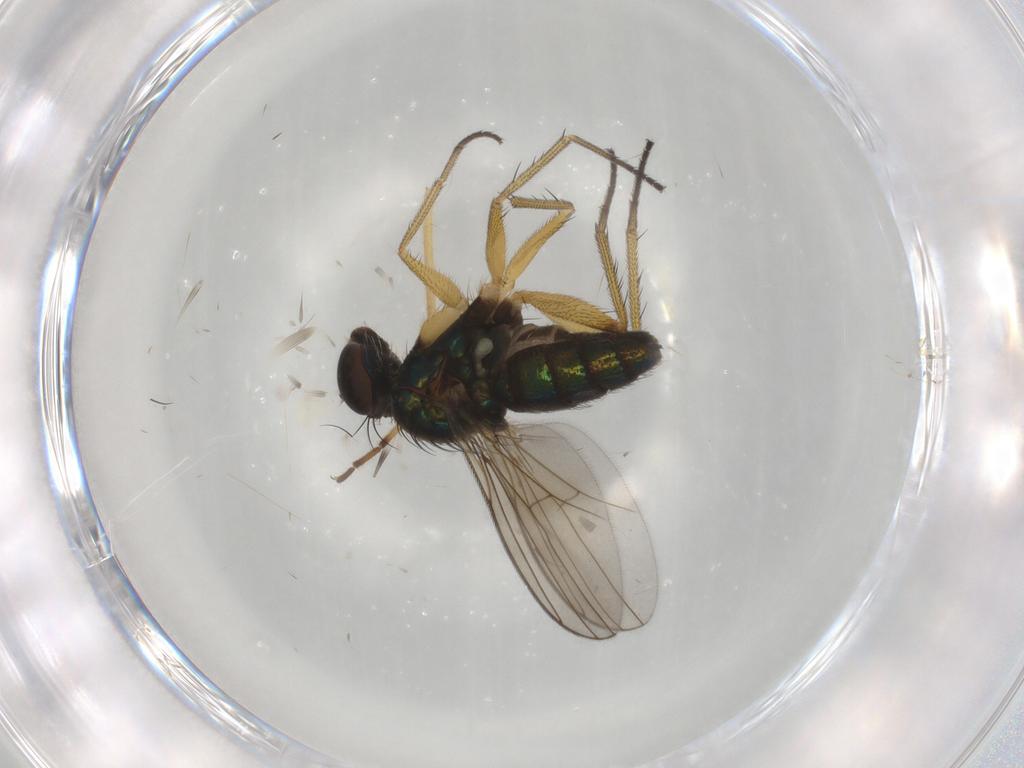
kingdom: Animalia
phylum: Arthropoda
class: Insecta
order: Diptera
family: Dolichopodidae
